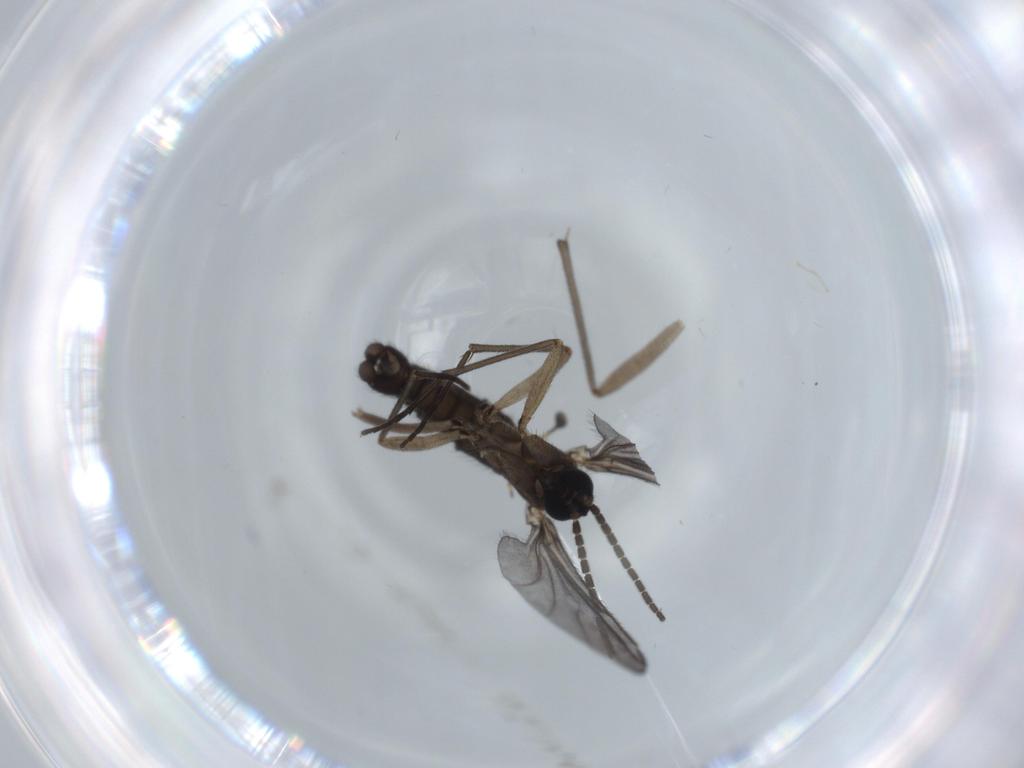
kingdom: Animalia
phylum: Arthropoda
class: Insecta
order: Diptera
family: Sciaridae
